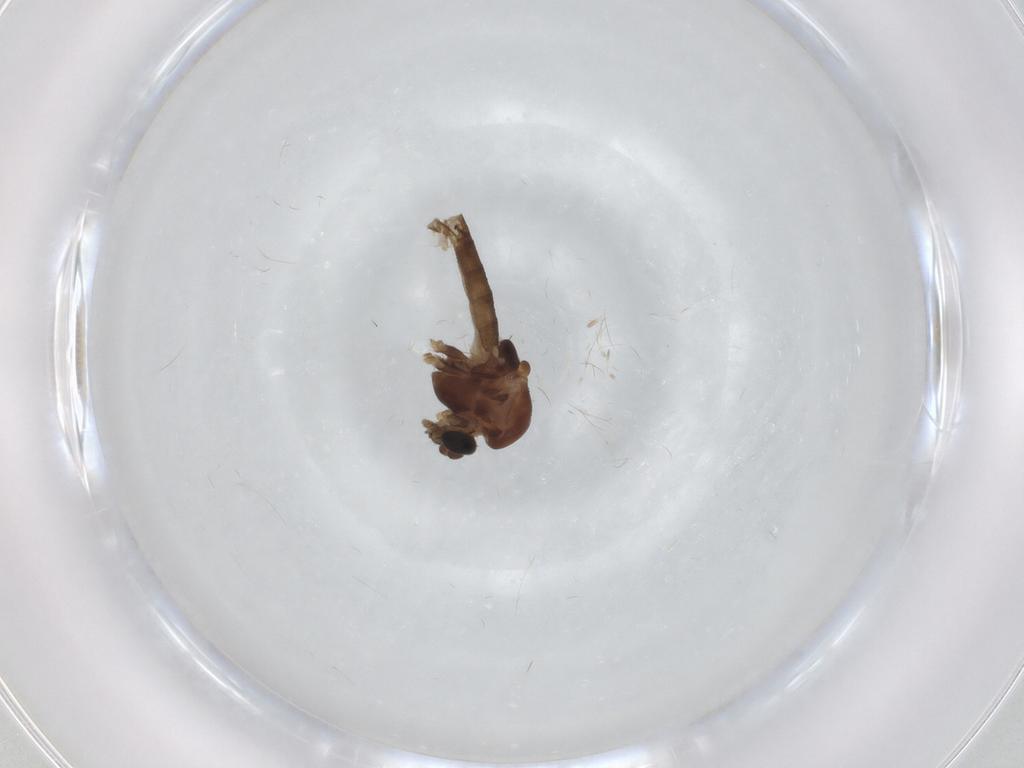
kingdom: Animalia
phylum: Arthropoda
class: Insecta
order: Diptera
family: Chironomidae
